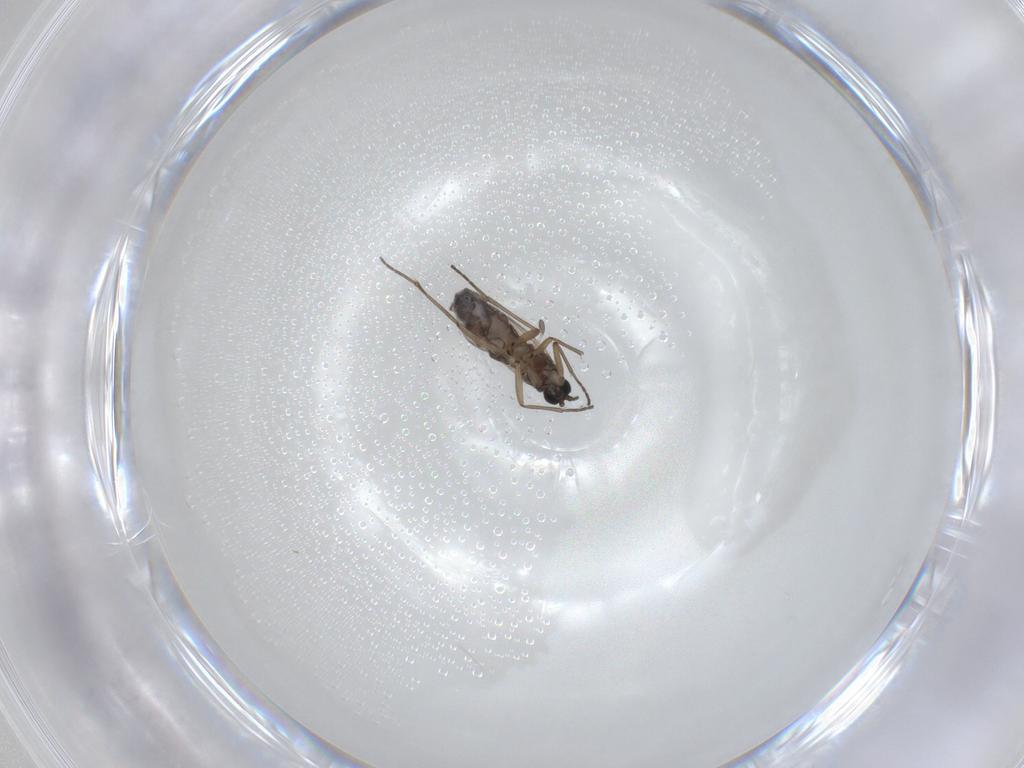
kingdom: Animalia
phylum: Arthropoda
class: Insecta
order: Diptera
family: Sciaridae
